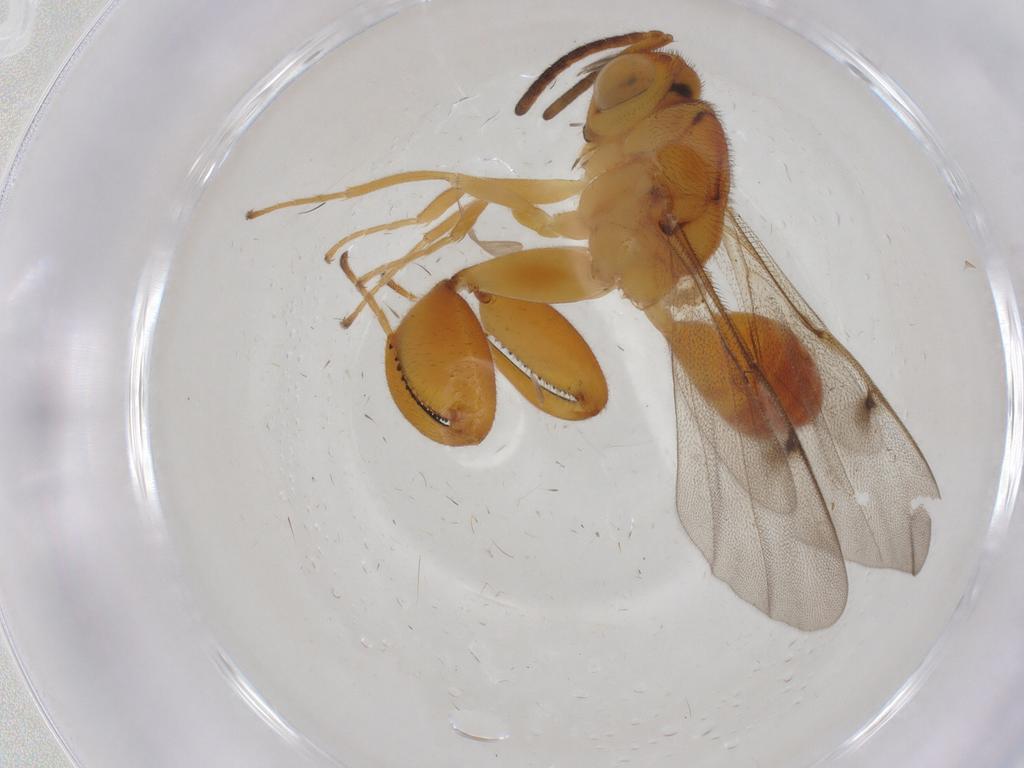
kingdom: Animalia
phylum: Arthropoda
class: Insecta
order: Hymenoptera
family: Chalcididae
